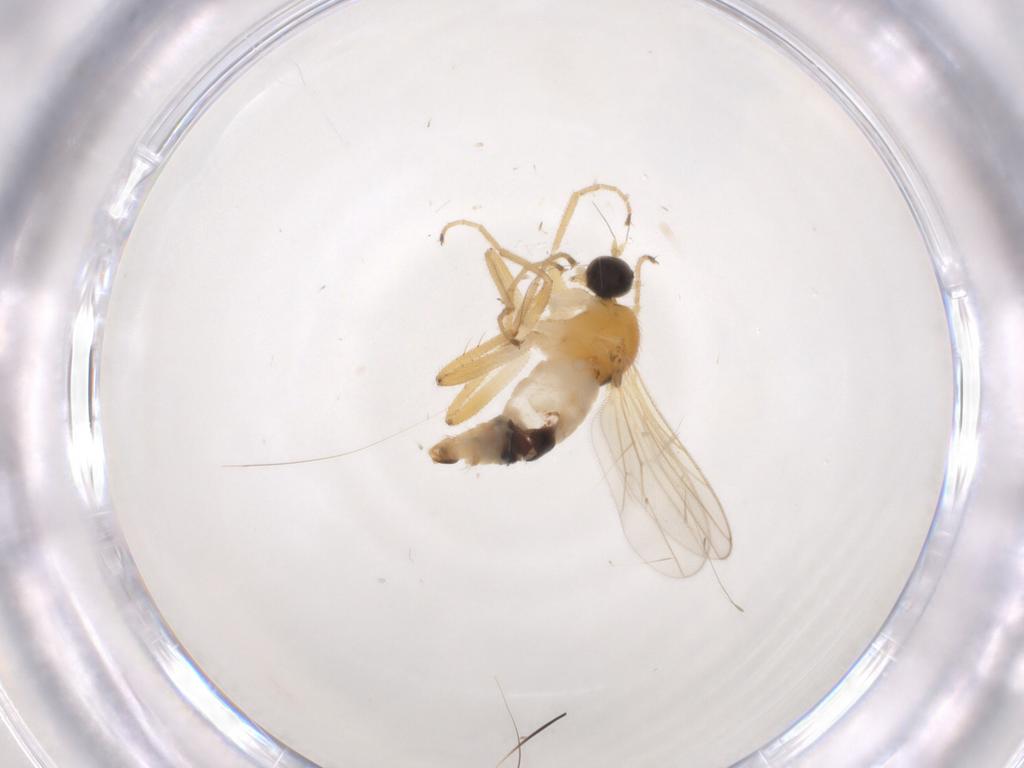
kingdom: Animalia
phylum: Arthropoda
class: Insecta
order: Diptera
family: Hybotidae
